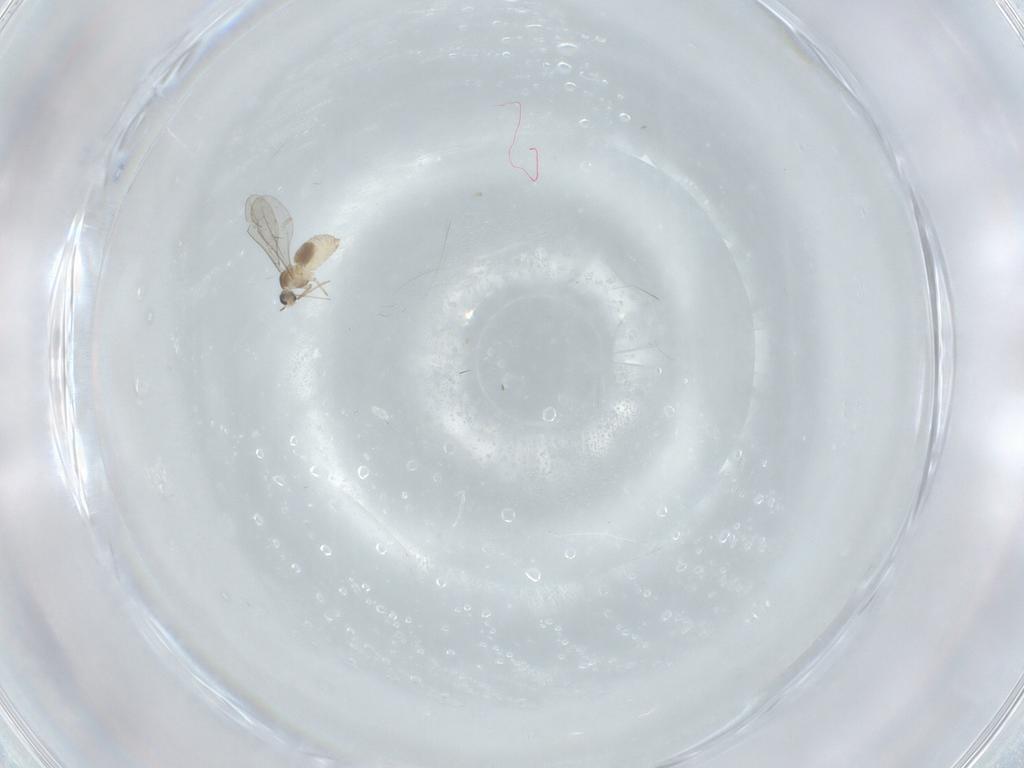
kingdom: Animalia
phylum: Arthropoda
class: Insecta
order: Diptera
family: Cecidomyiidae
